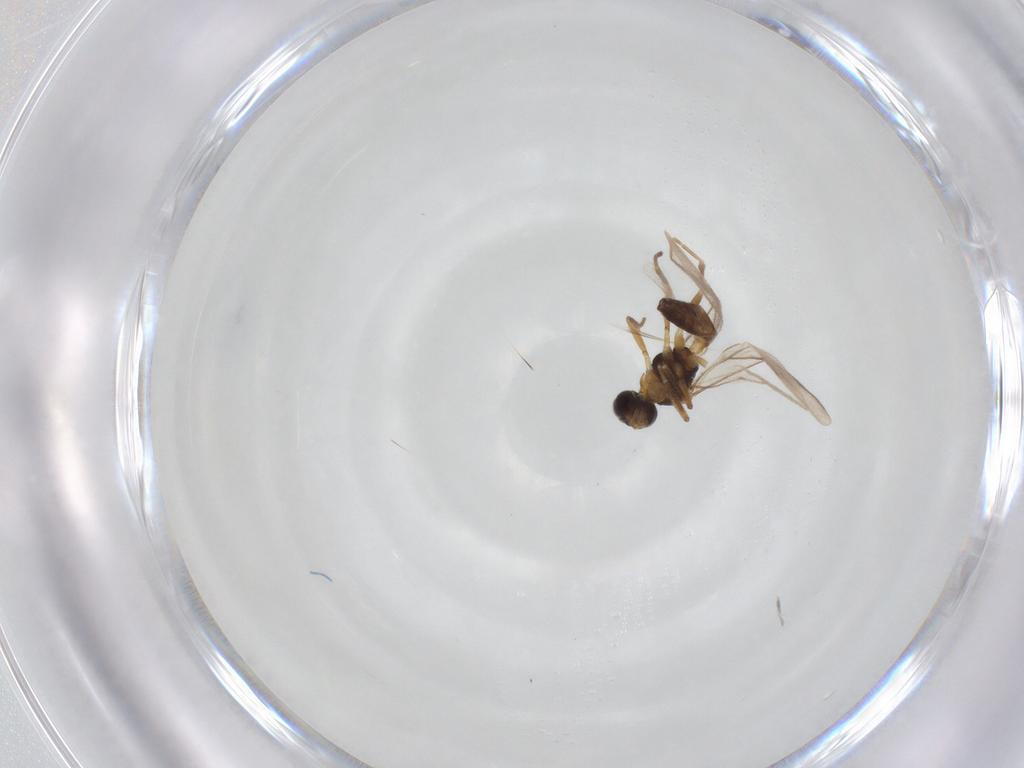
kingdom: Animalia
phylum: Arthropoda
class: Insecta
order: Hymenoptera
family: Braconidae
